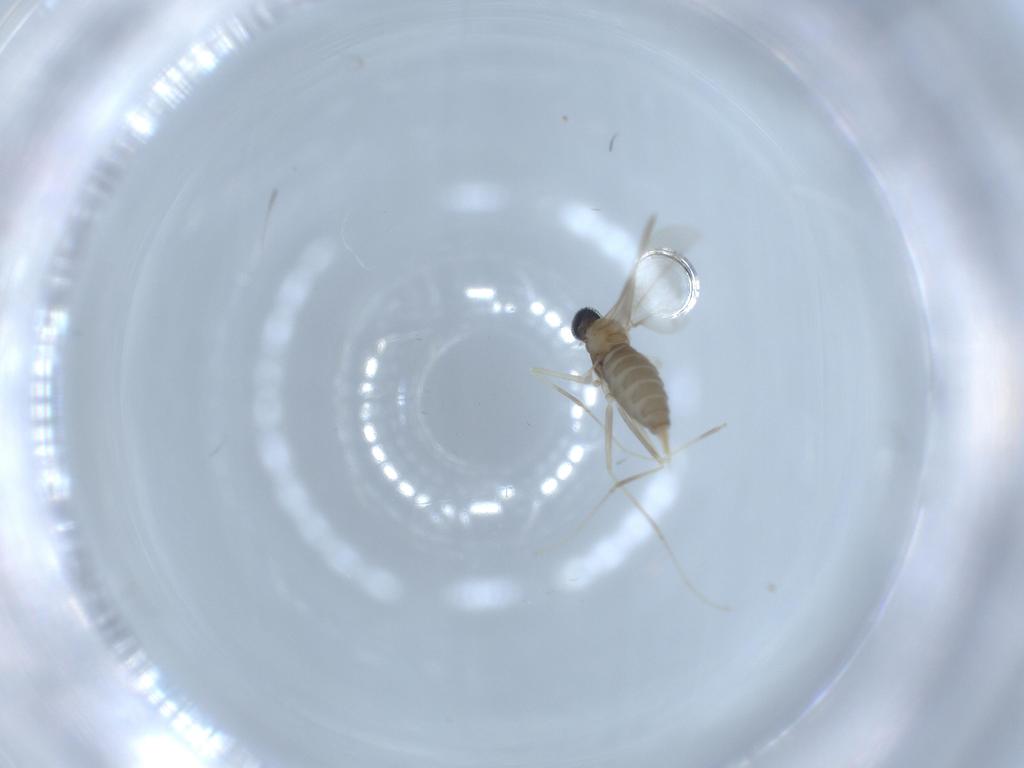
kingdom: Animalia
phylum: Arthropoda
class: Insecta
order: Diptera
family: Cecidomyiidae
